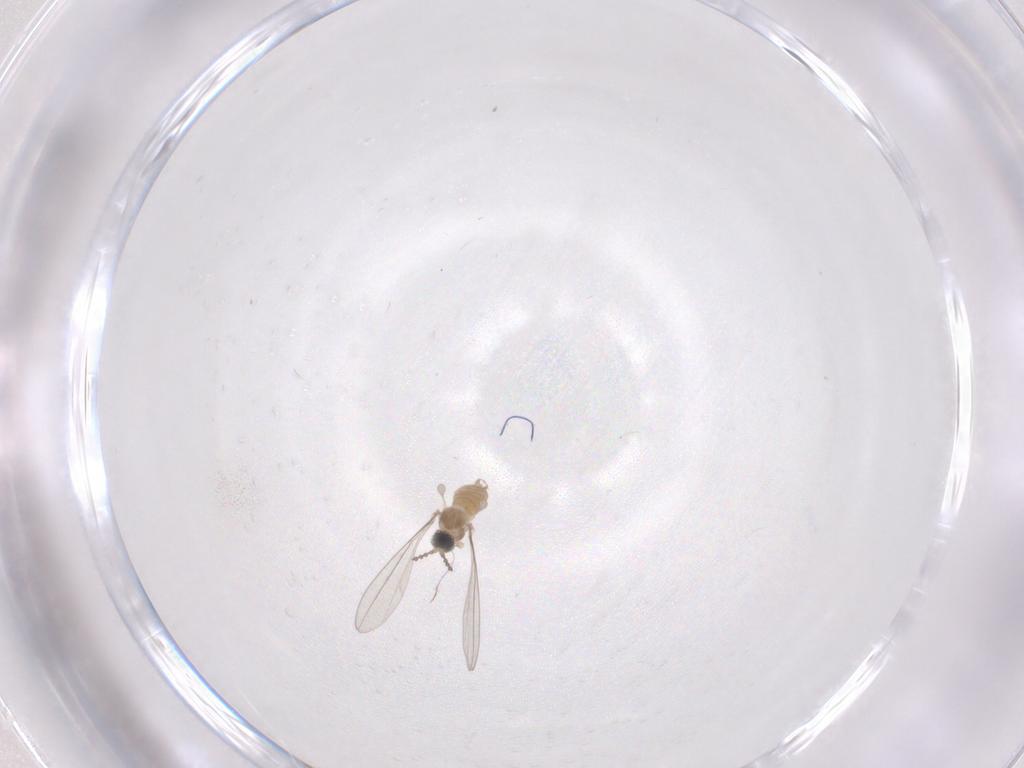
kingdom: Animalia
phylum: Arthropoda
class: Insecta
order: Diptera
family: Cecidomyiidae
